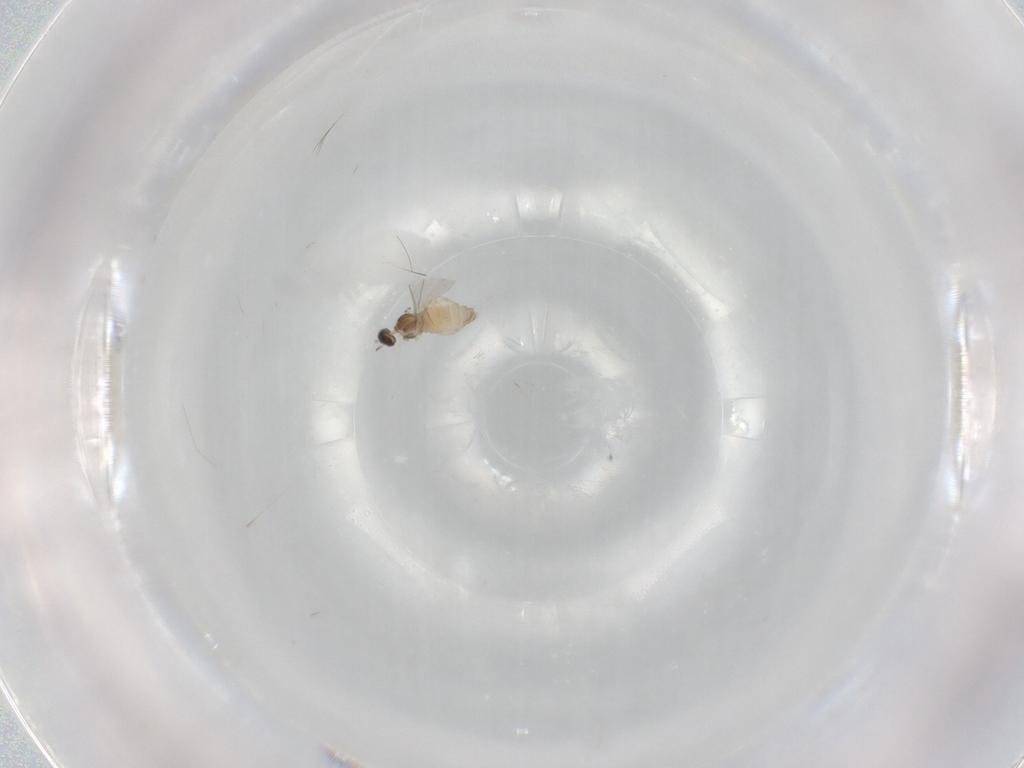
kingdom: Animalia
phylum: Arthropoda
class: Insecta
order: Diptera
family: Cecidomyiidae
